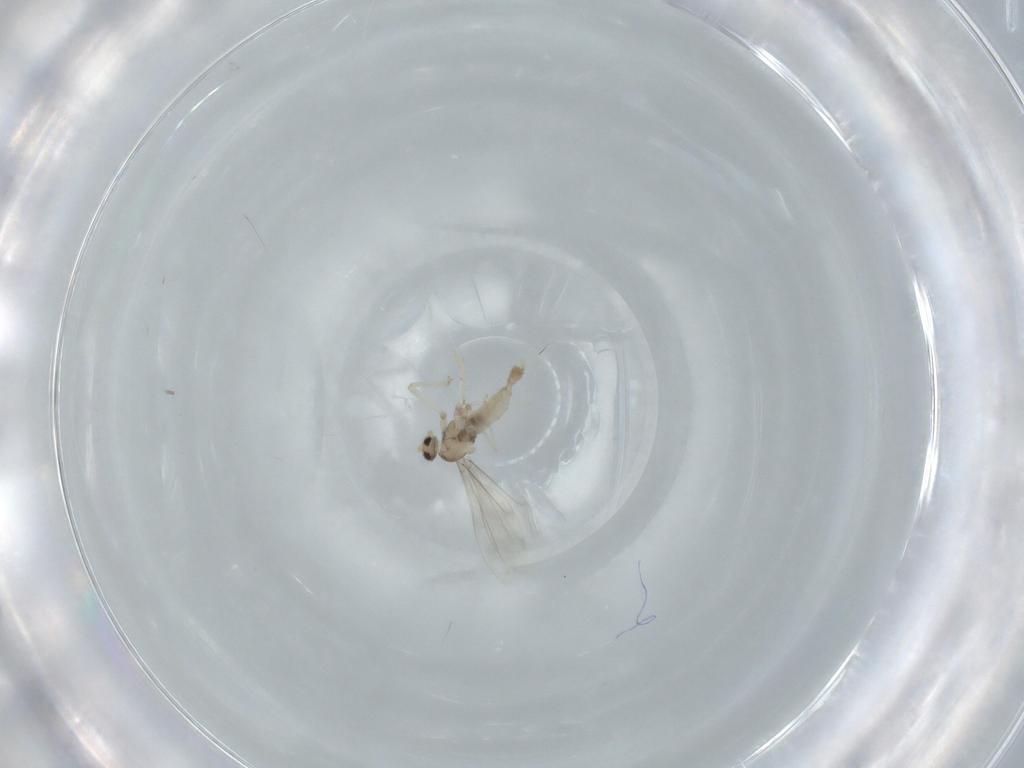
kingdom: Animalia
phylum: Arthropoda
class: Insecta
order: Diptera
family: Cecidomyiidae
